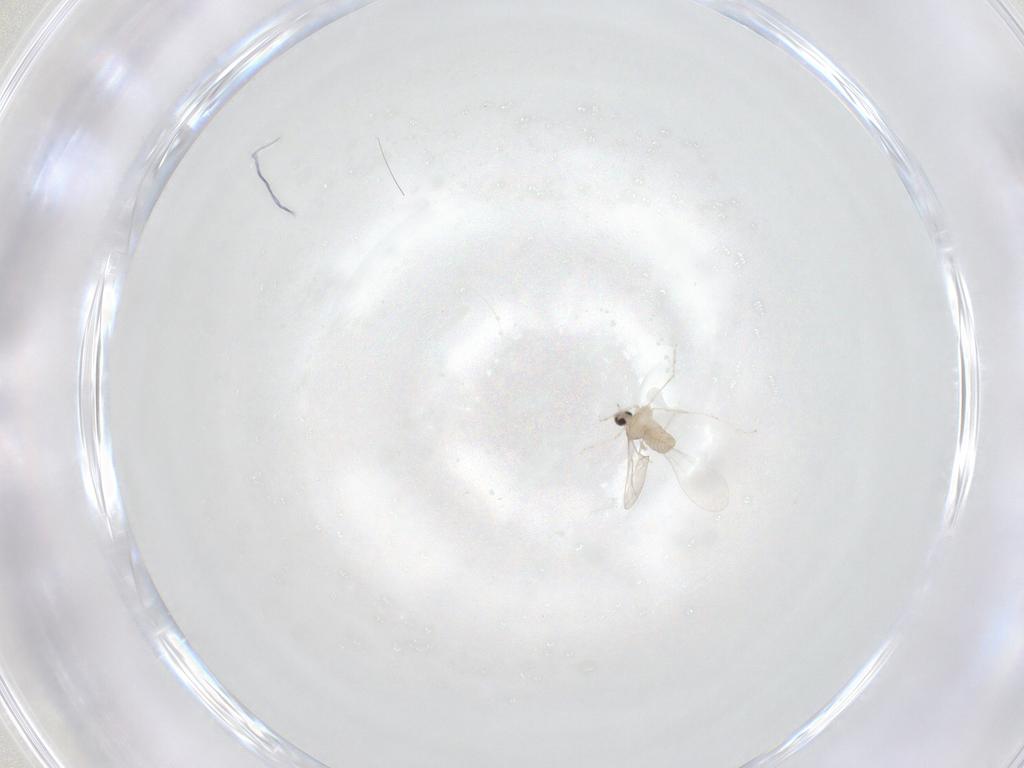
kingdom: Animalia
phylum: Arthropoda
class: Insecta
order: Diptera
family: Cecidomyiidae
